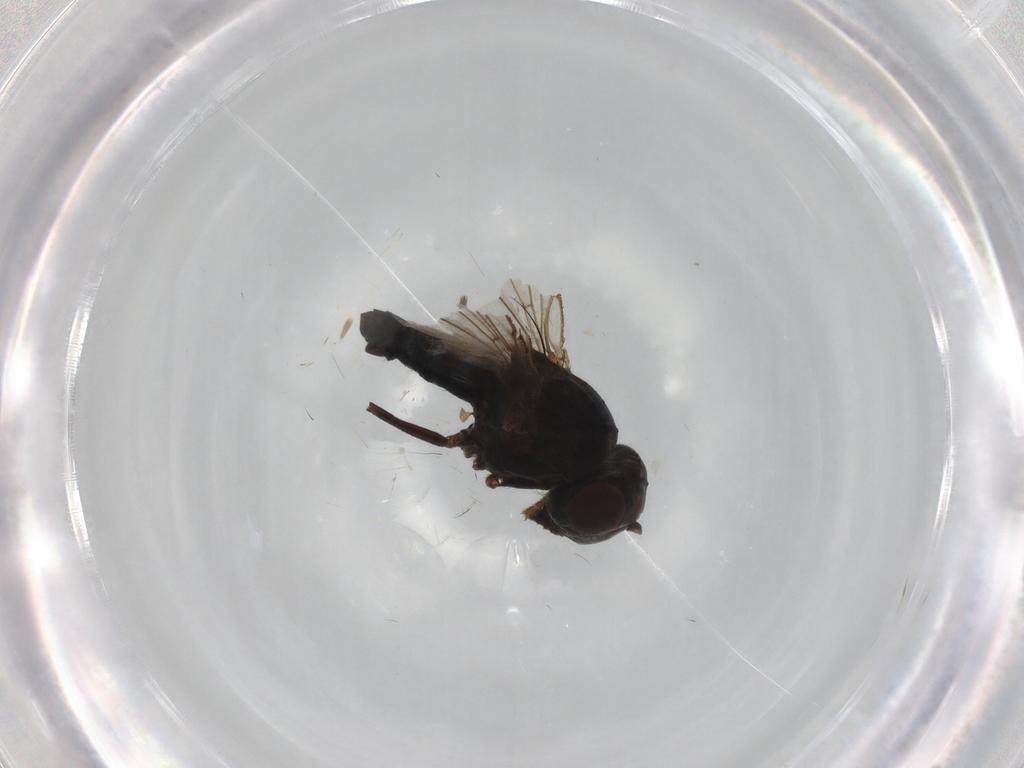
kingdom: Animalia
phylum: Arthropoda
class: Insecta
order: Diptera
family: Ephydridae
